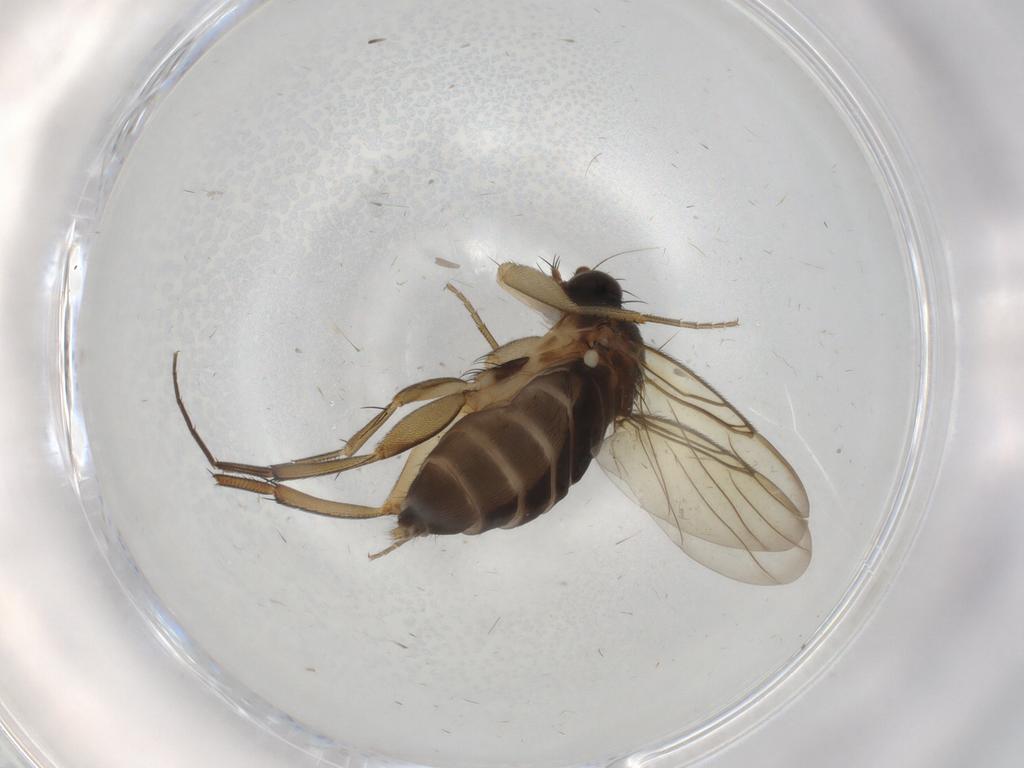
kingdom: Animalia
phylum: Arthropoda
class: Insecta
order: Diptera
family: Phoridae
